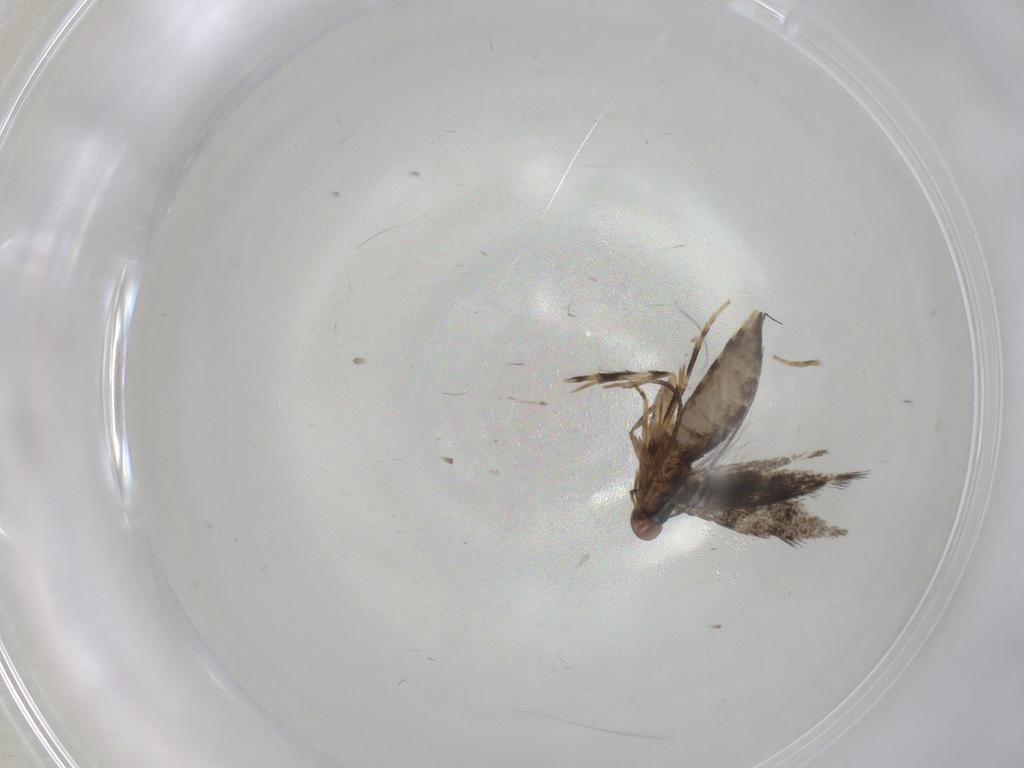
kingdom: Animalia
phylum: Arthropoda
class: Insecta
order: Lepidoptera
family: Elachistidae
